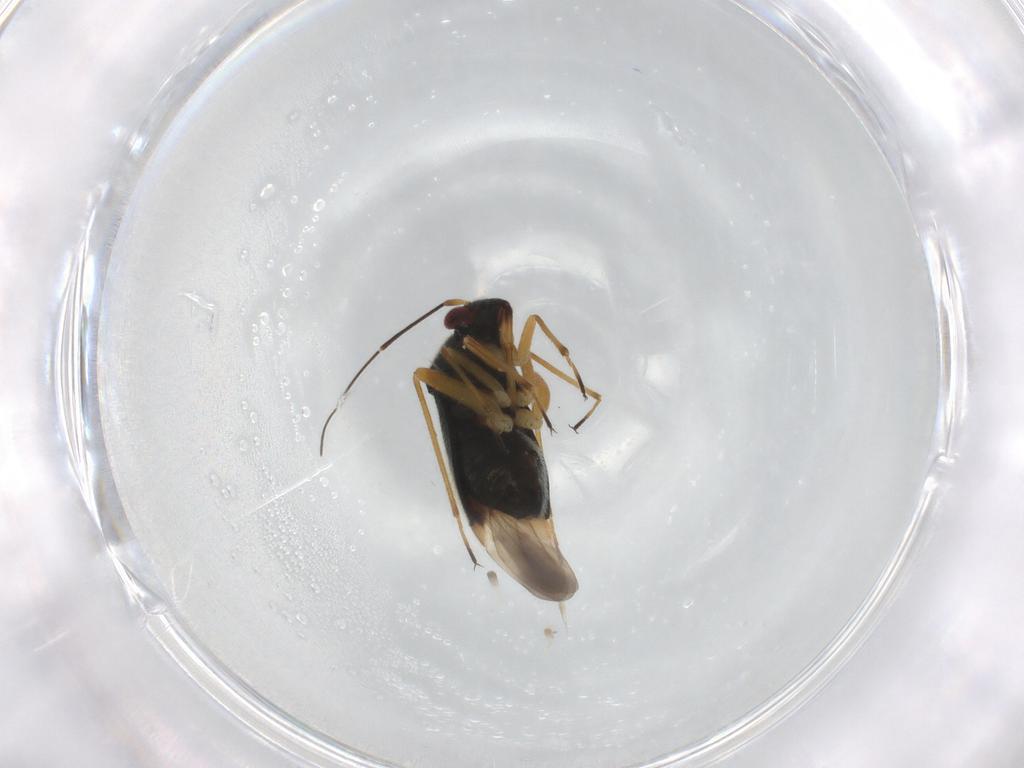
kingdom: Animalia
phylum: Arthropoda
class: Insecta
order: Hemiptera
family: Miridae
